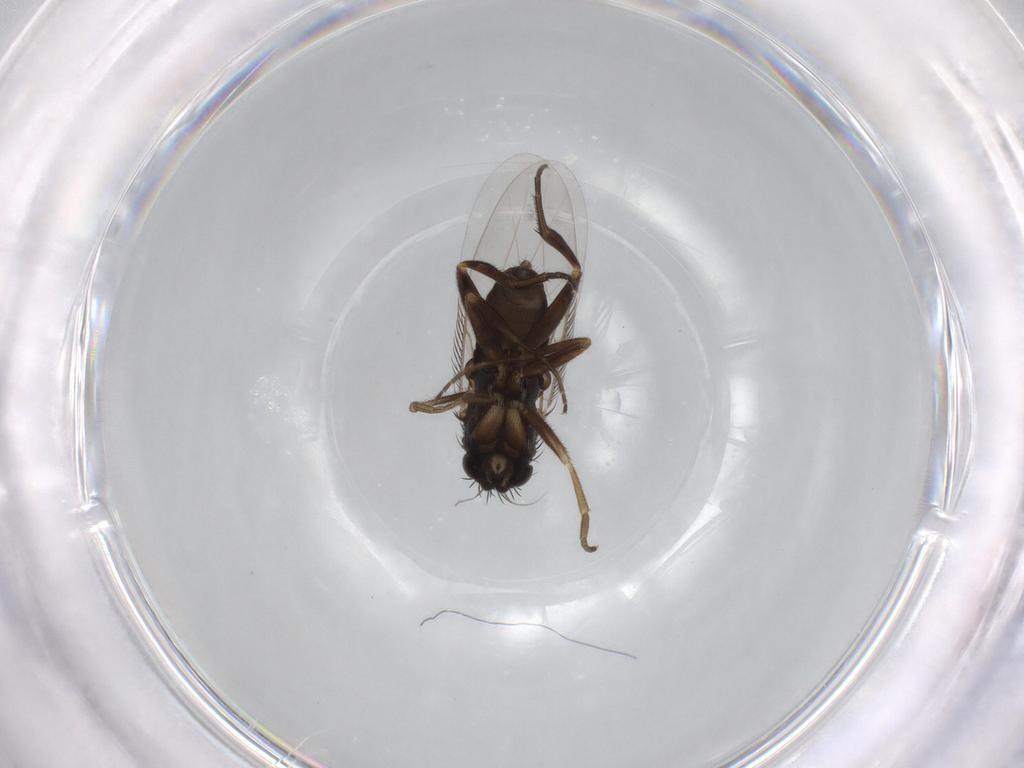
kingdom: Animalia
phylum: Arthropoda
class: Insecta
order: Diptera
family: Phoridae
